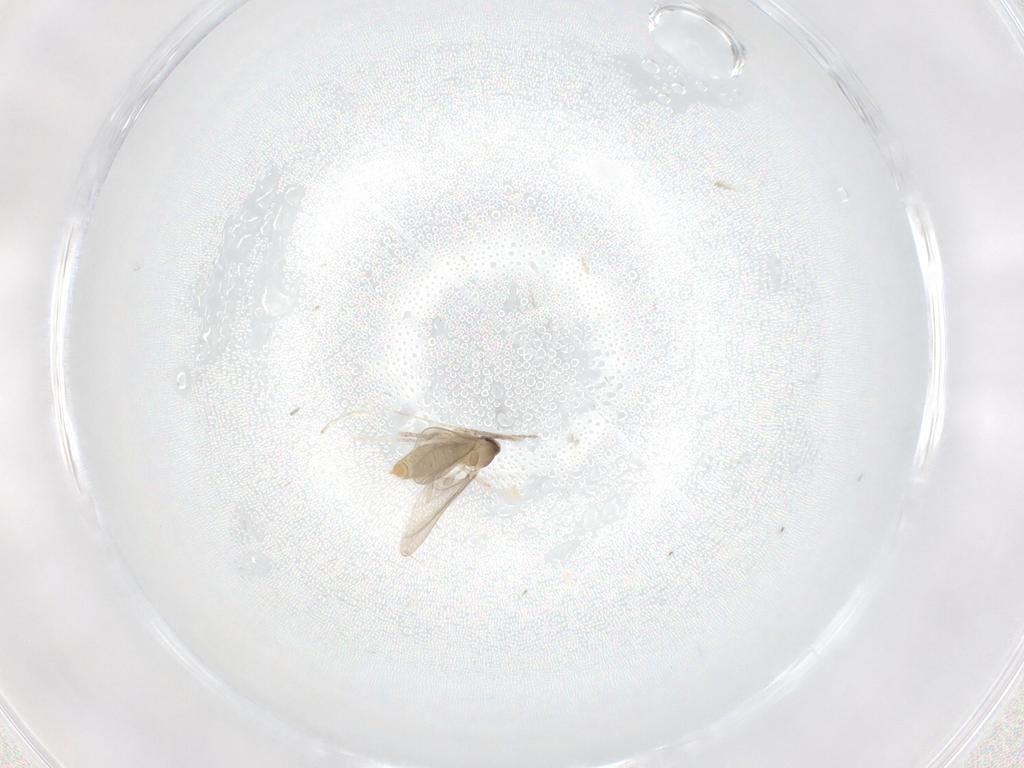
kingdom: Animalia
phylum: Arthropoda
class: Insecta
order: Diptera
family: Cecidomyiidae
